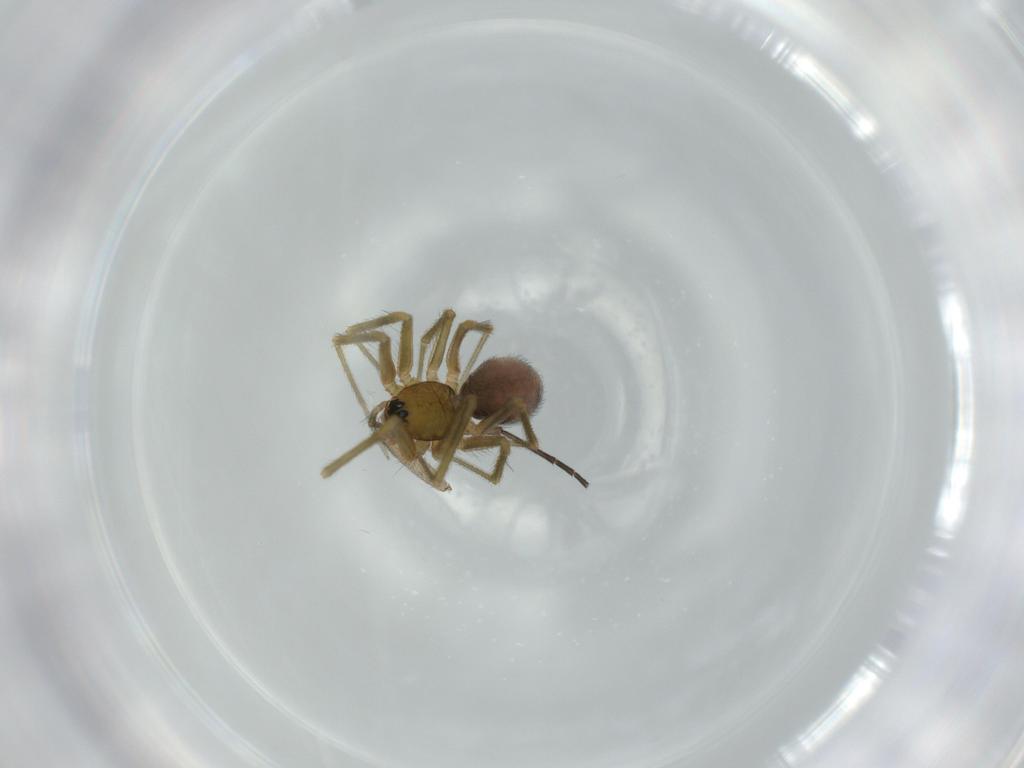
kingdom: Animalia
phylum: Arthropoda
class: Arachnida
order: Araneae
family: Linyphiidae
